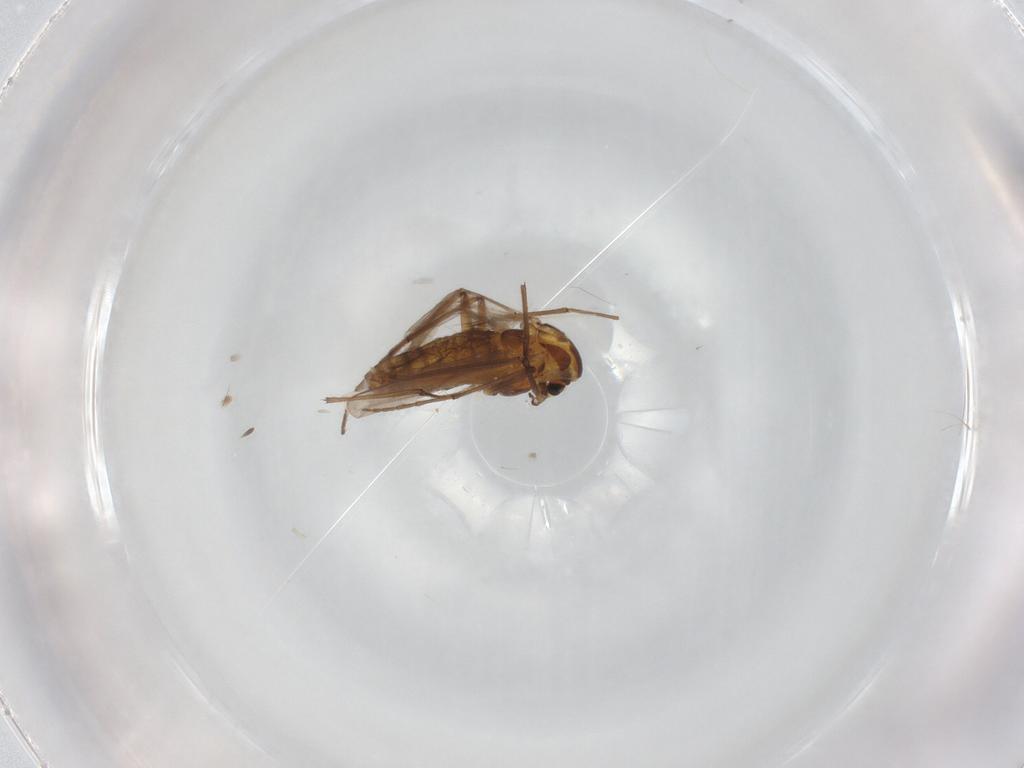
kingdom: Animalia
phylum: Arthropoda
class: Insecta
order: Diptera
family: Chironomidae
